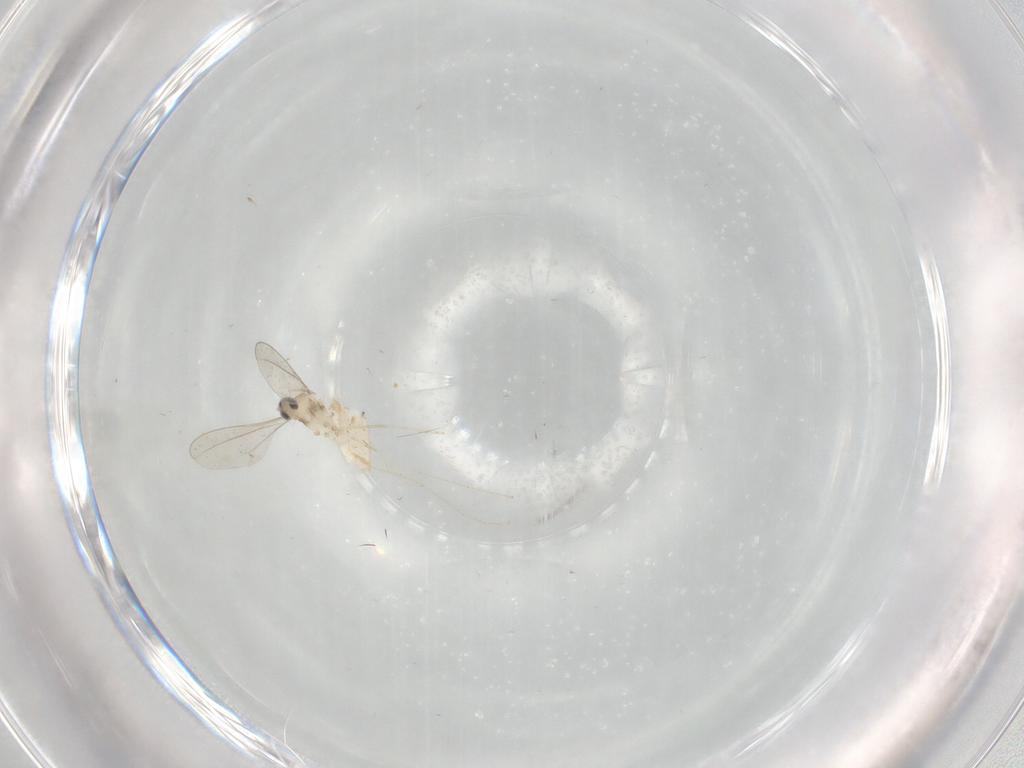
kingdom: Animalia
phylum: Arthropoda
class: Insecta
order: Diptera
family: Cecidomyiidae
